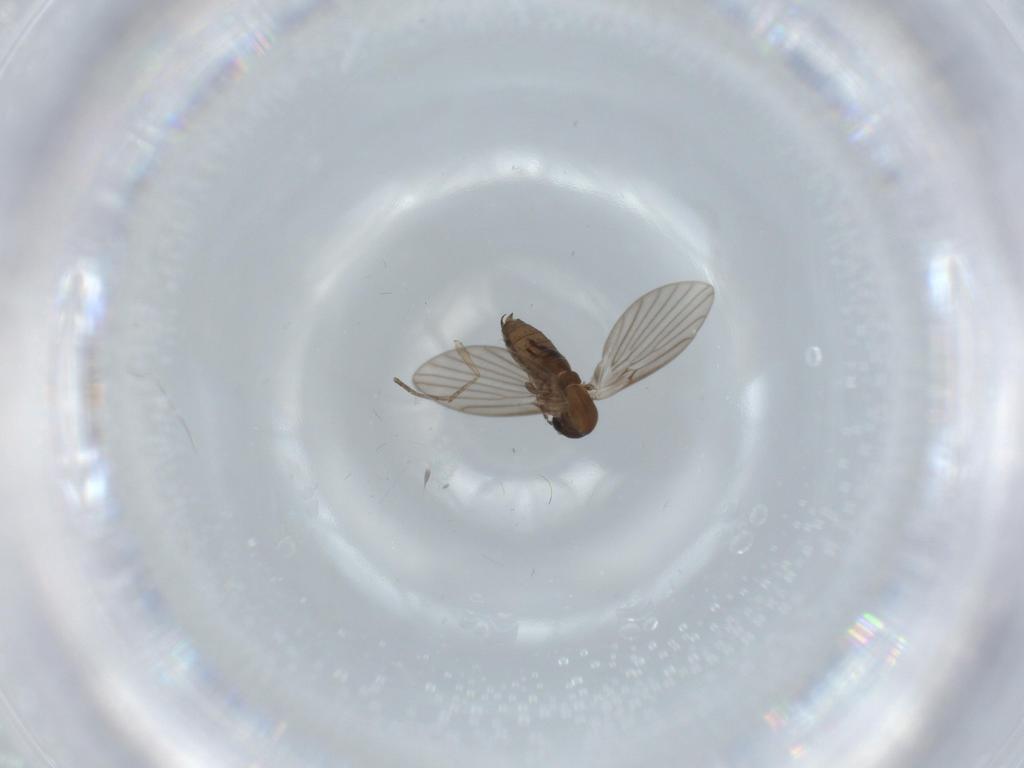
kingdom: Animalia
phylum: Arthropoda
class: Insecta
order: Diptera
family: Psychodidae
